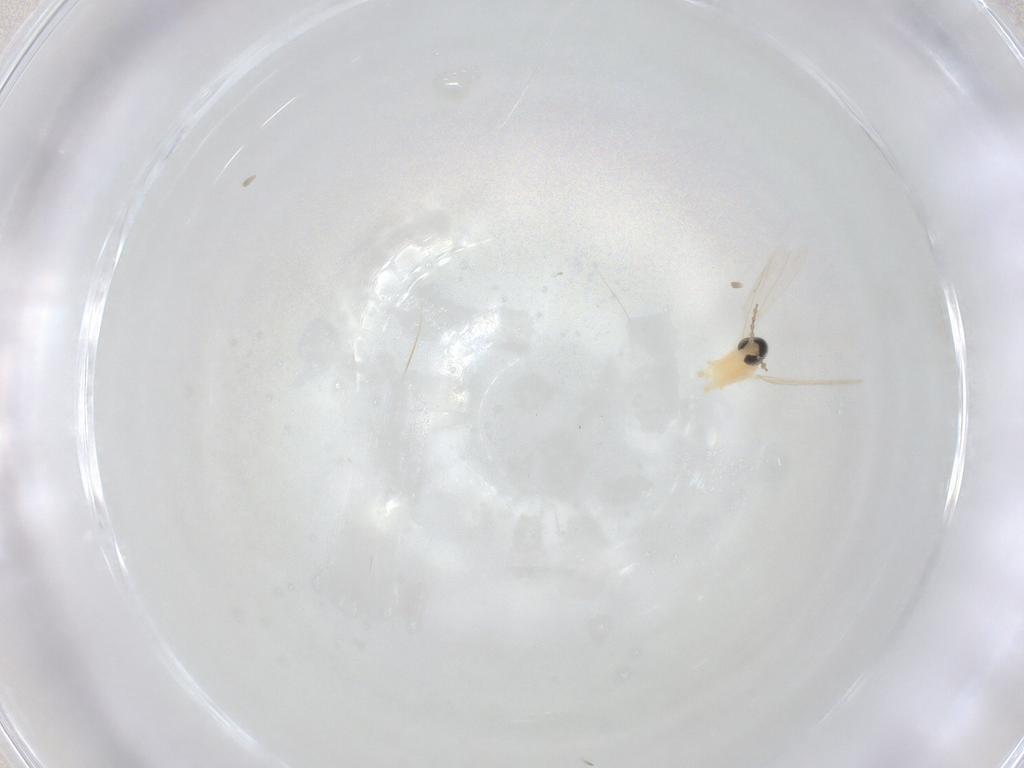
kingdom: Animalia
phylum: Arthropoda
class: Insecta
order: Diptera
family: Cecidomyiidae
